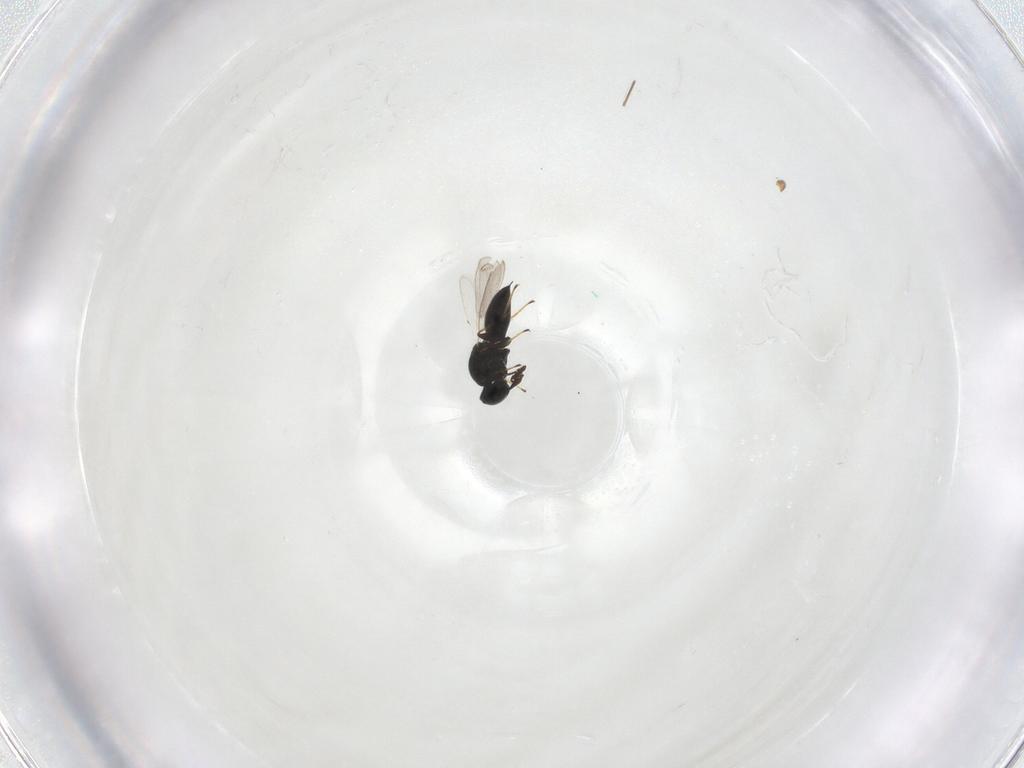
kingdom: Animalia
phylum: Arthropoda
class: Insecta
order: Hymenoptera
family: Platygastridae
